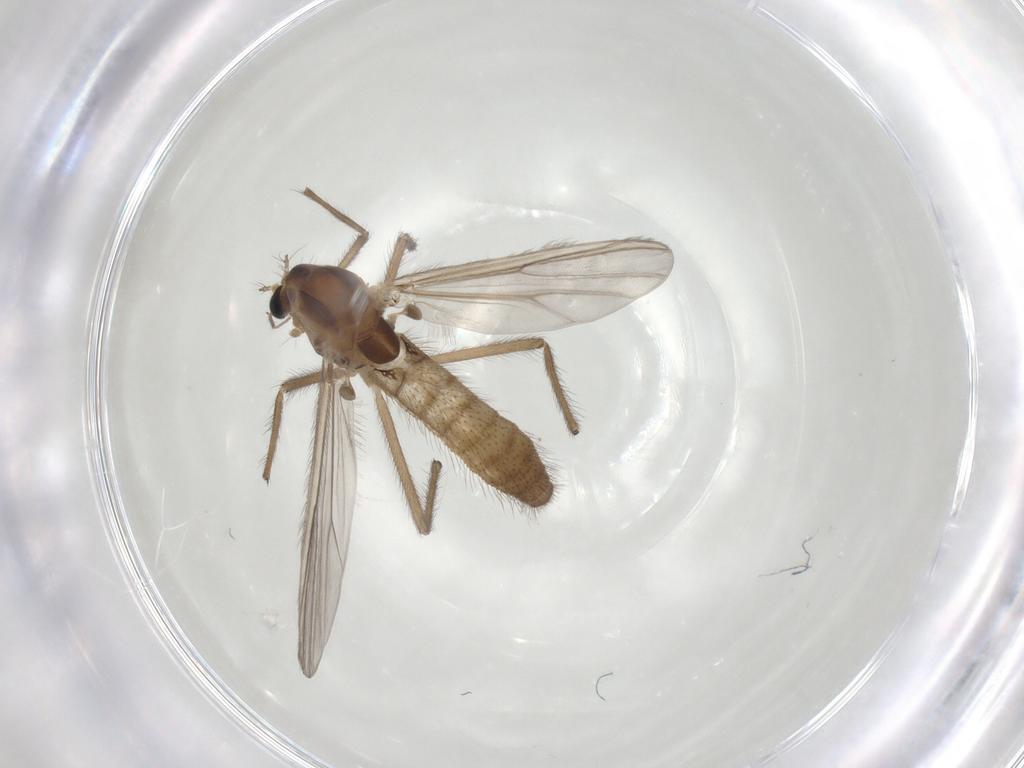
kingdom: Animalia
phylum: Arthropoda
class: Insecta
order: Diptera
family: Chironomidae
